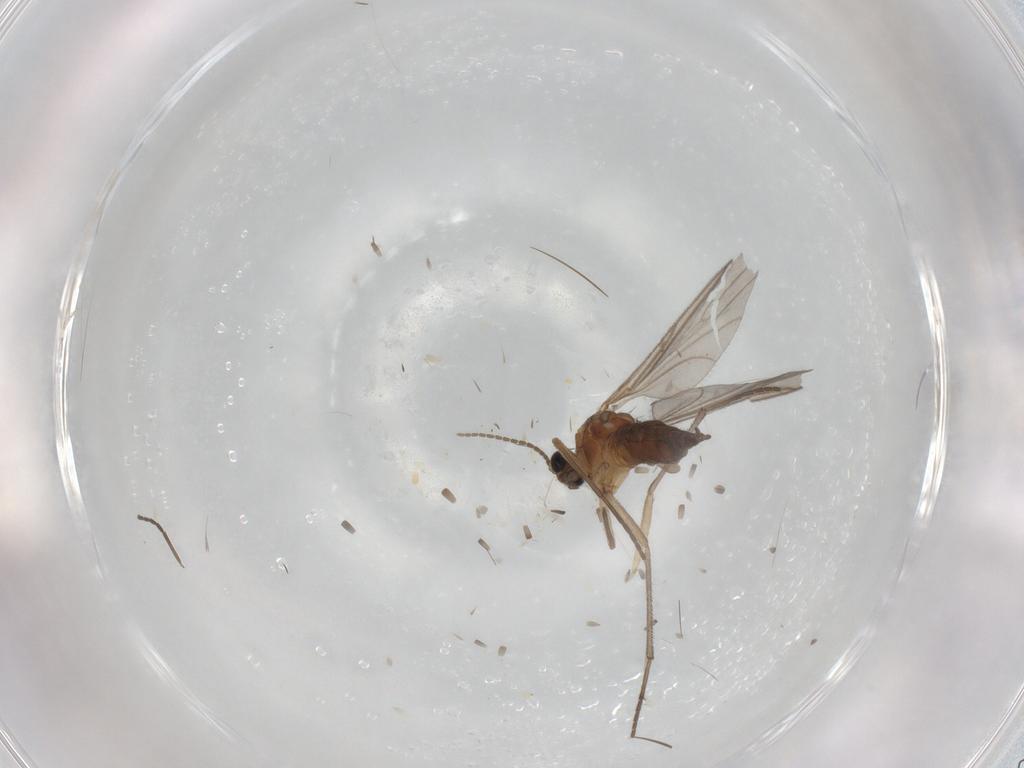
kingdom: Animalia
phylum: Arthropoda
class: Insecta
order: Diptera
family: Sciaridae
